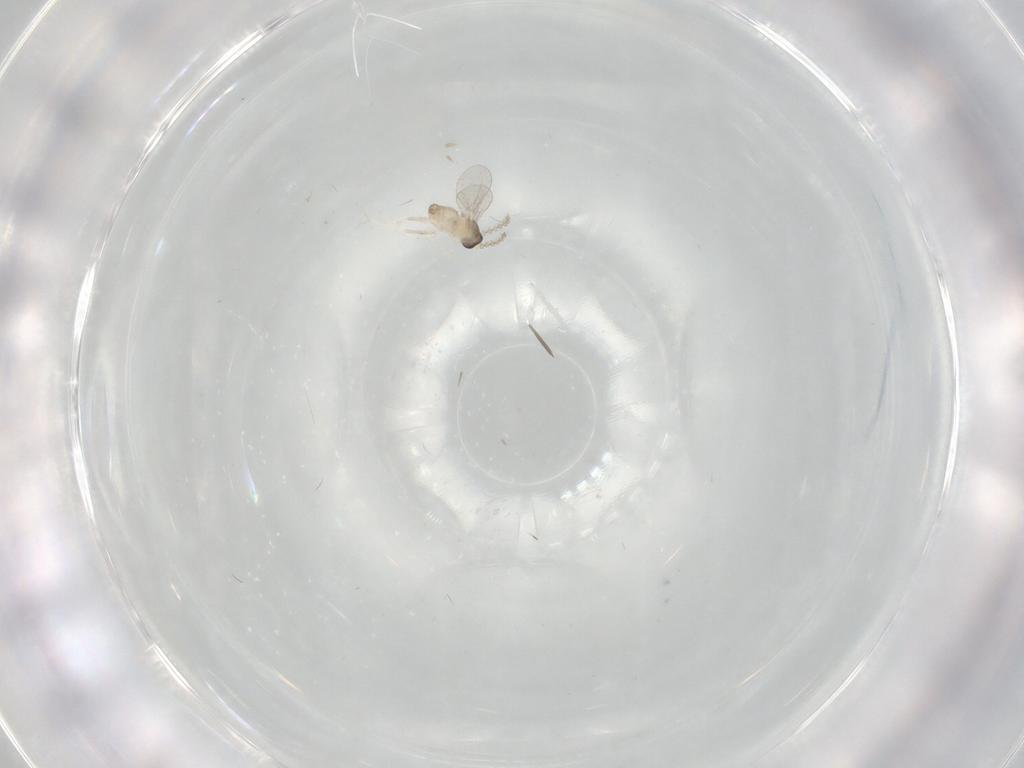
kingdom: Animalia
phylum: Arthropoda
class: Insecta
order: Diptera
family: Cecidomyiidae
